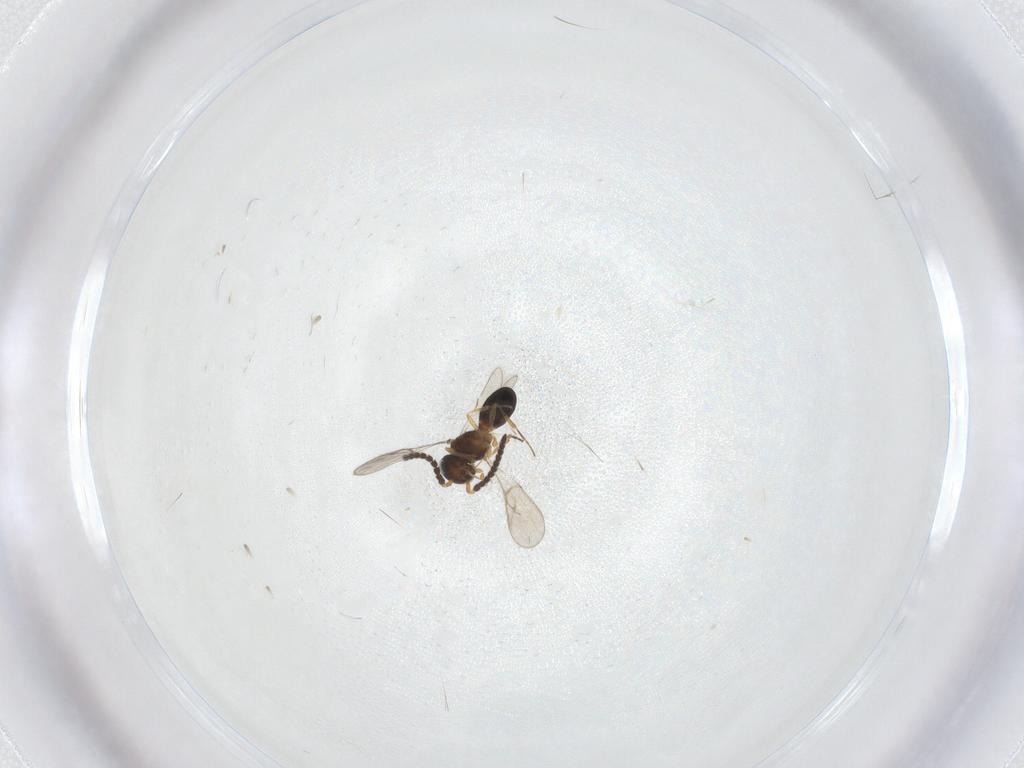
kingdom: Animalia
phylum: Arthropoda
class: Insecta
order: Hymenoptera
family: Scelionidae
